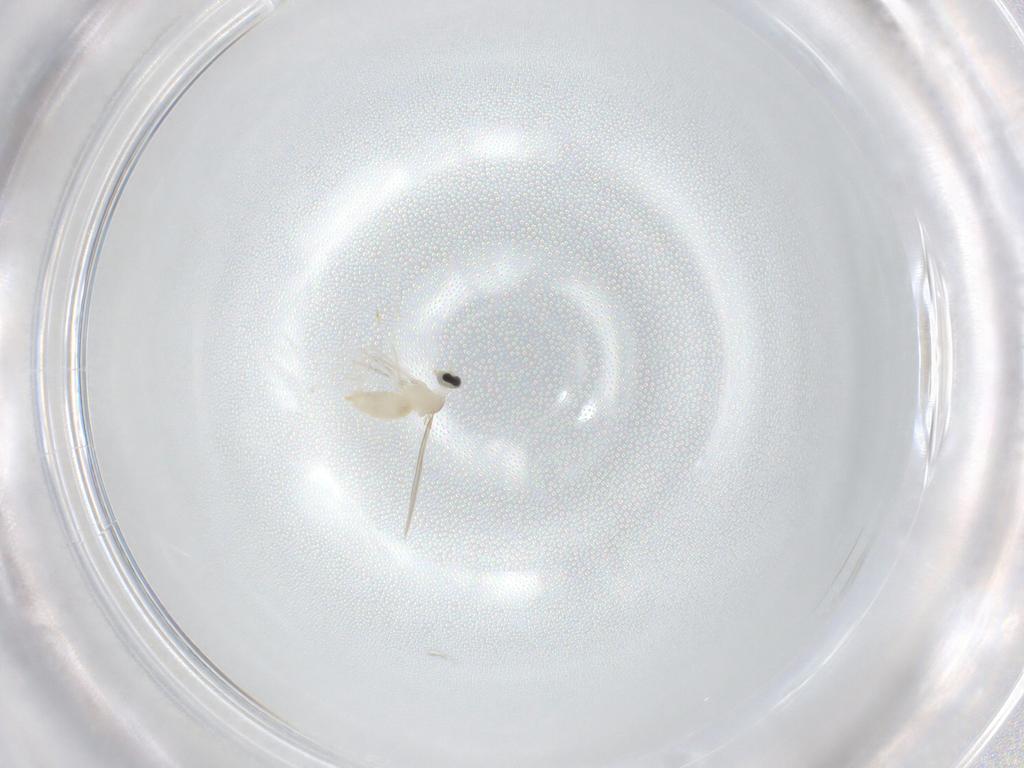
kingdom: Animalia
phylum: Arthropoda
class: Insecta
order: Diptera
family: Cecidomyiidae
